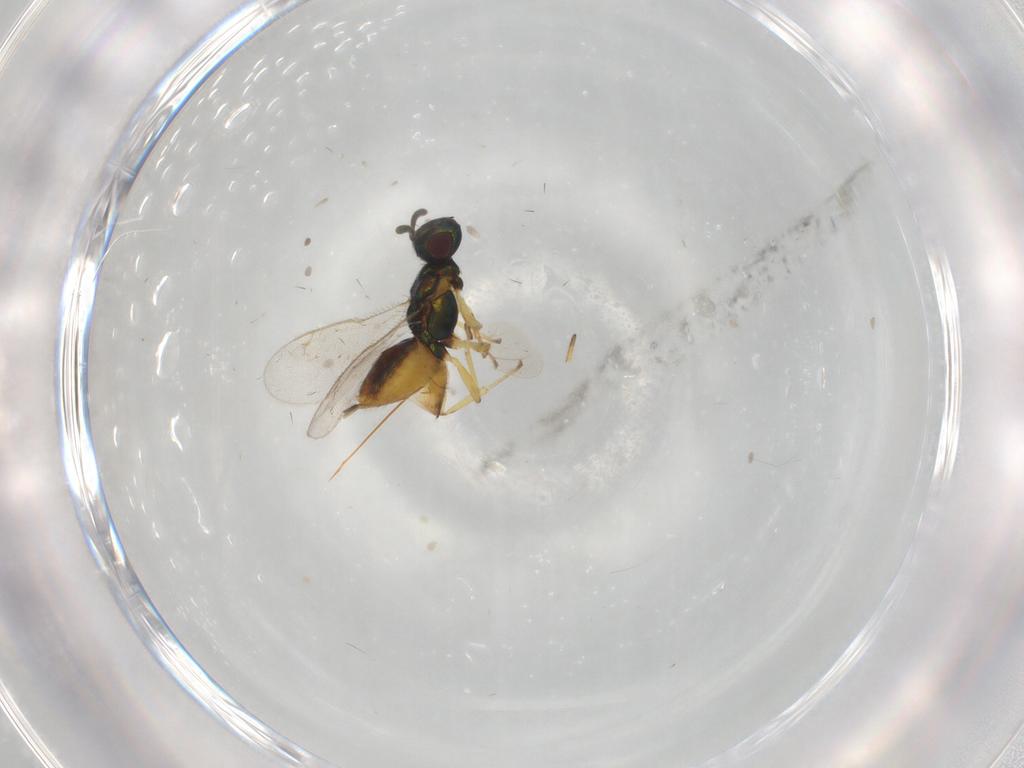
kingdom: Animalia
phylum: Arthropoda
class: Insecta
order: Hymenoptera
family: Eupelmidae
